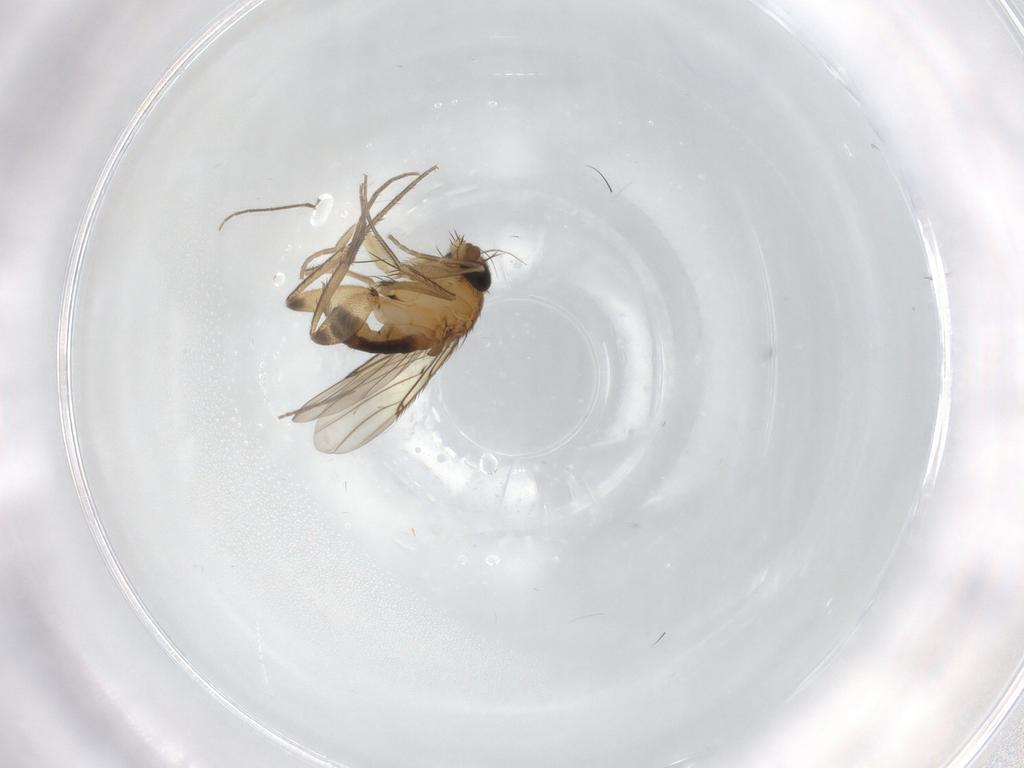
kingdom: Animalia
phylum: Arthropoda
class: Insecta
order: Diptera
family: Phoridae
